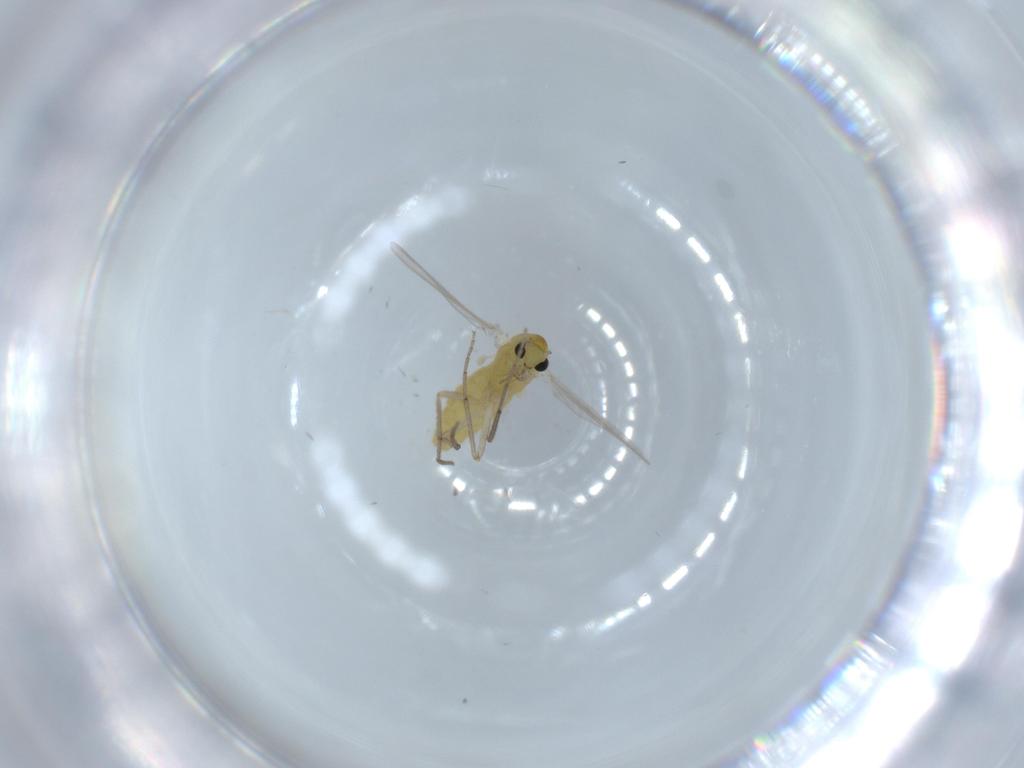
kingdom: Animalia
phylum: Arthropoda
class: Insecta
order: Diptera
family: Chironomidae
